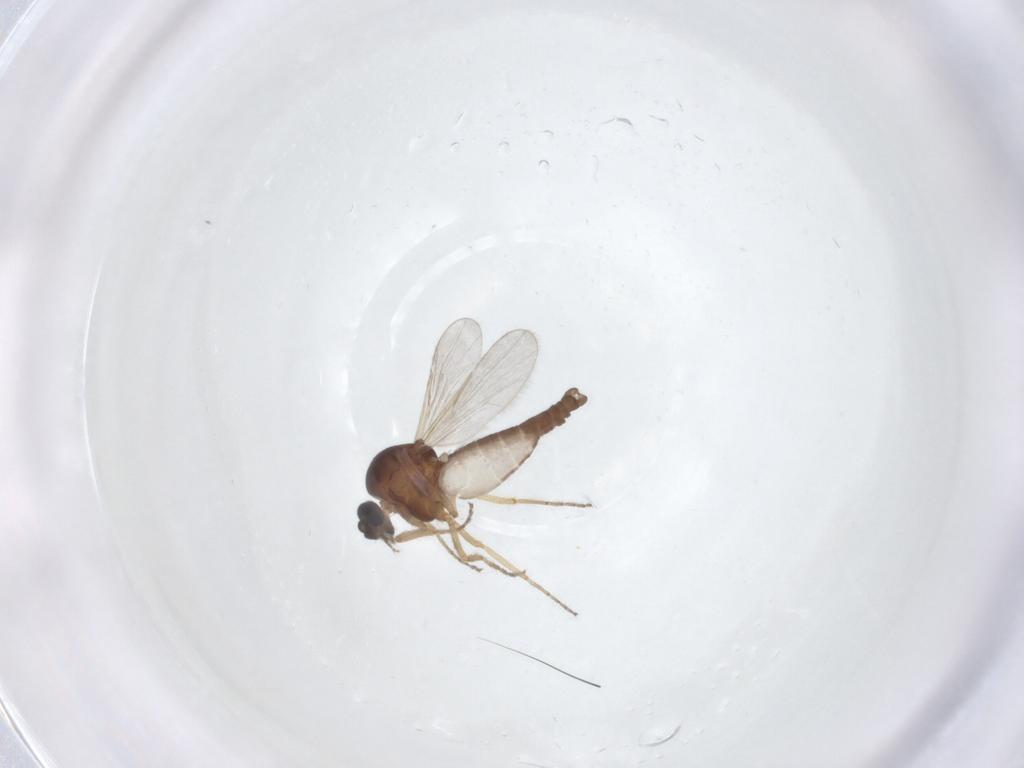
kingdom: Animalia
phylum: Arthropoda
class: Insecta
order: Diptera
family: Ceratopogonidae
